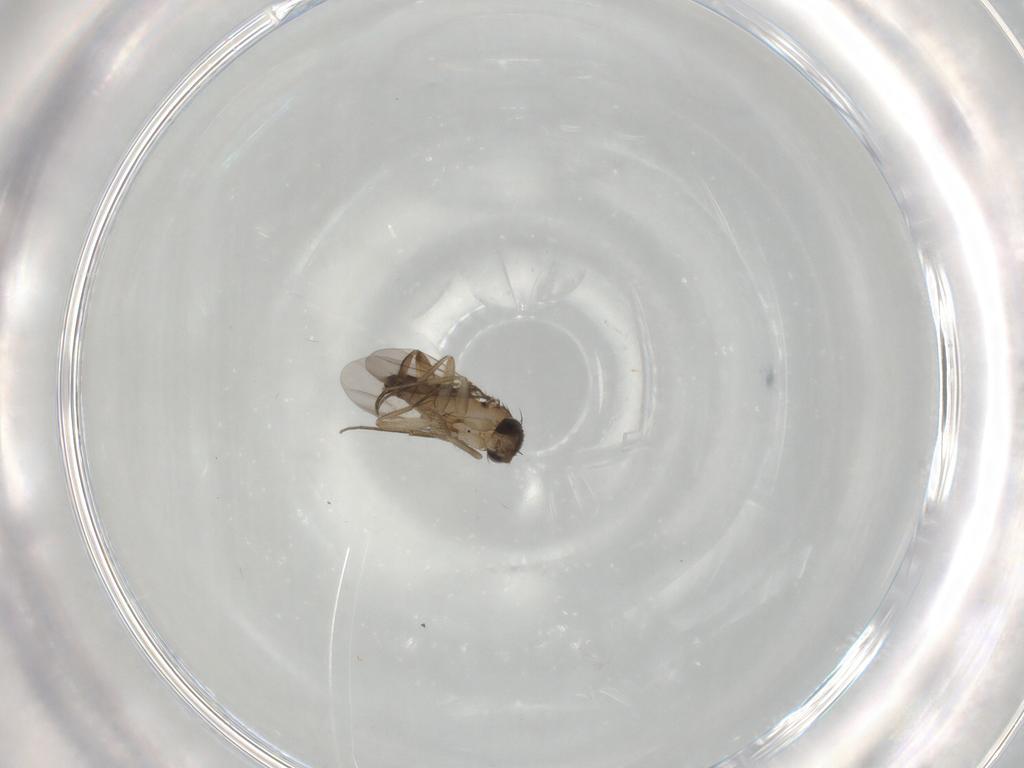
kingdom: Animalia
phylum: Arthropoda
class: Insecta
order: Diptera
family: Phoridae
